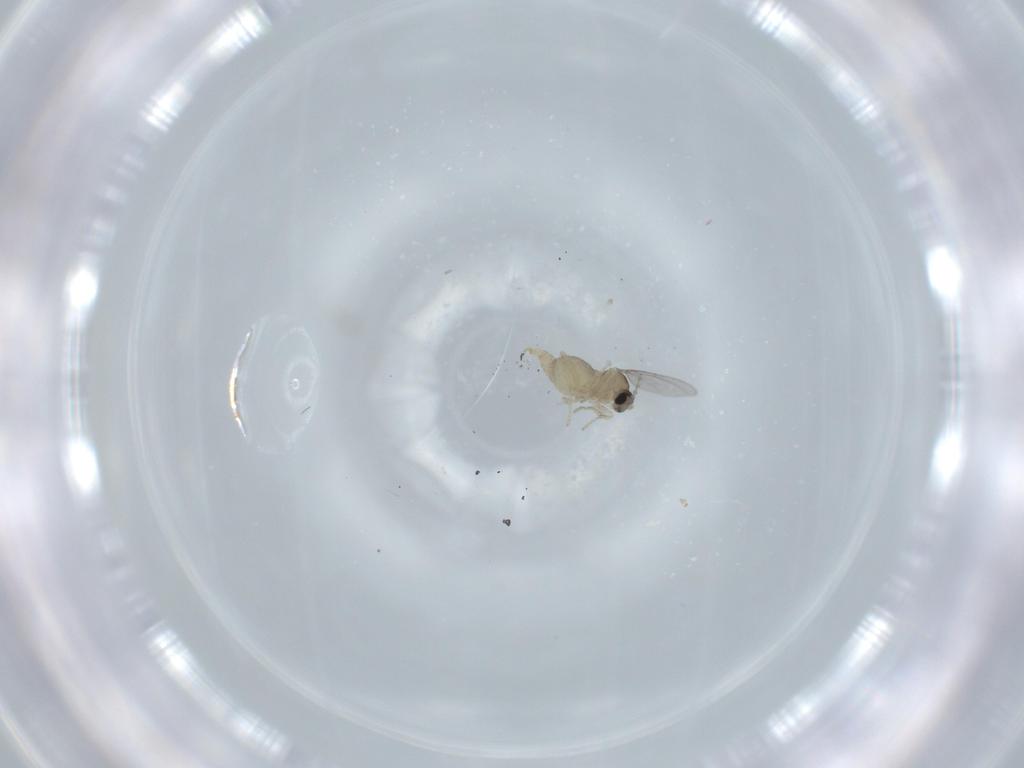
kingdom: Animalia
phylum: Arthropoda
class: Insecta
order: Diptera
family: Cecidomyiidae
